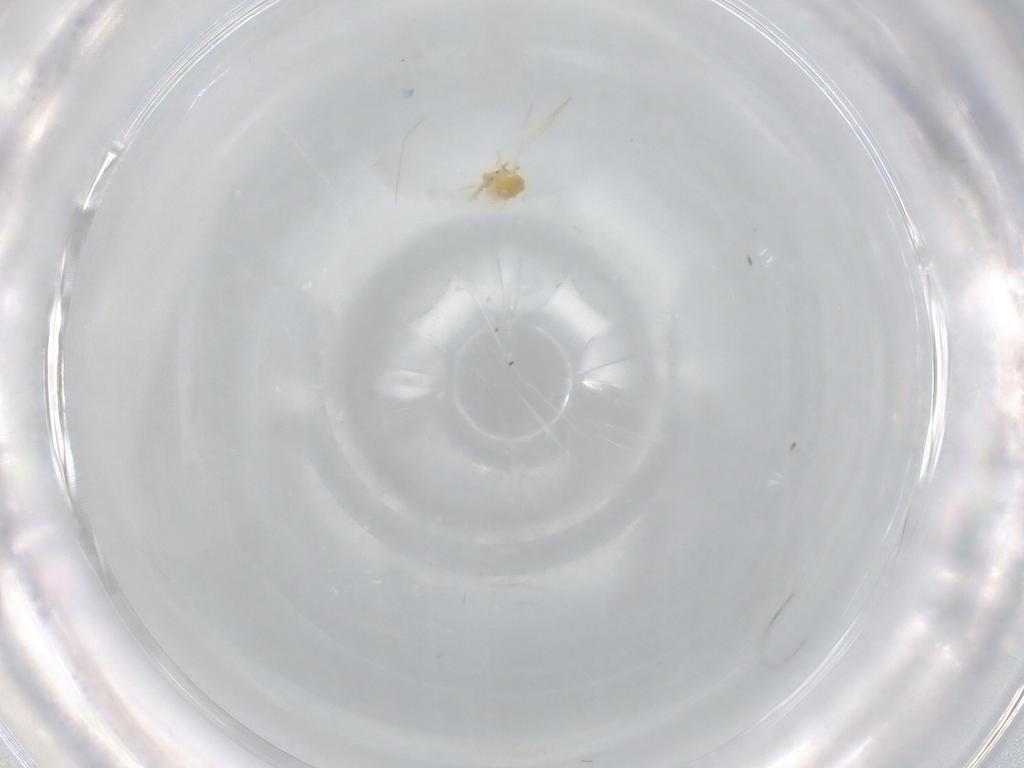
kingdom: Animalia
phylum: Arthropoda
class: Insecta
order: Hymenoptera
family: Eulophidae
